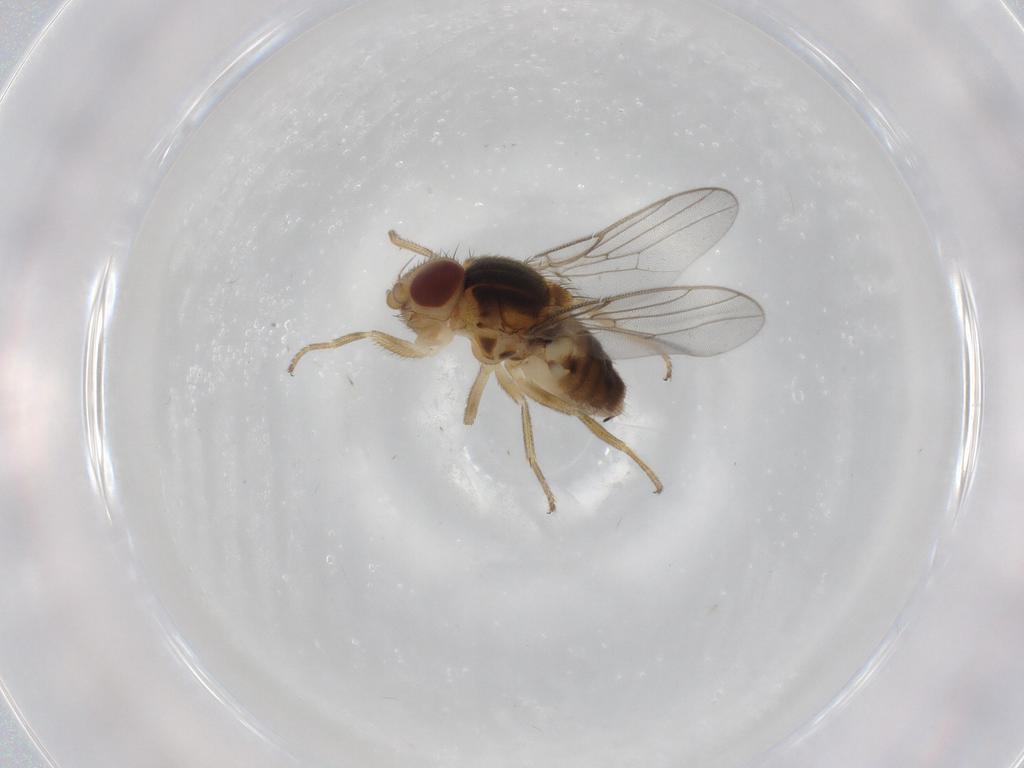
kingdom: Animalia
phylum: Arthropoda
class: Insecta
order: Diptera
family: Chloropidae
